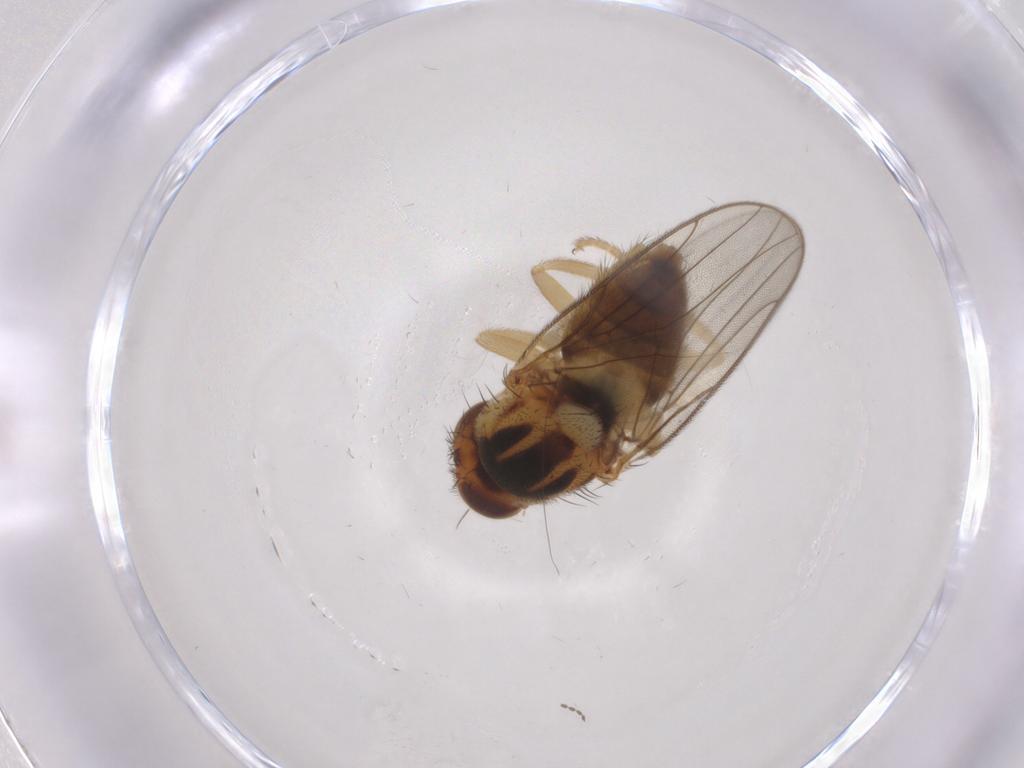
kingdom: Animalia
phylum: Arthropoda
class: Insecta
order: Diptera
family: Chloropidae
